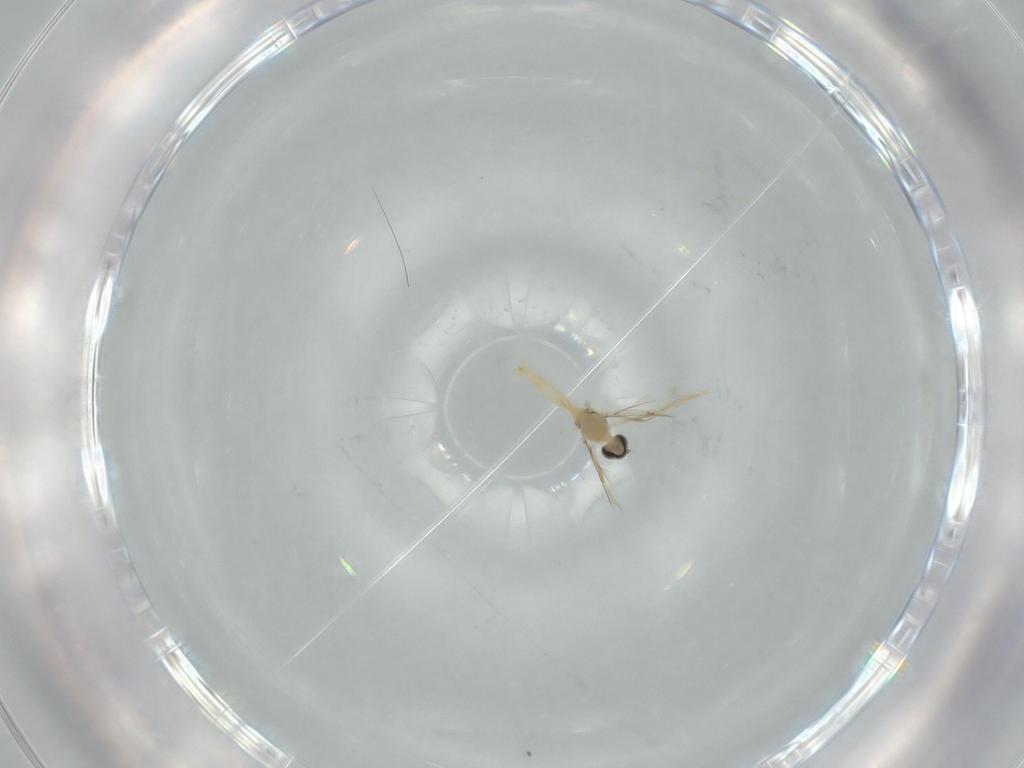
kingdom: Animalia
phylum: Arthropoda
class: Insecta
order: Diptera
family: Cecidomyiidae
